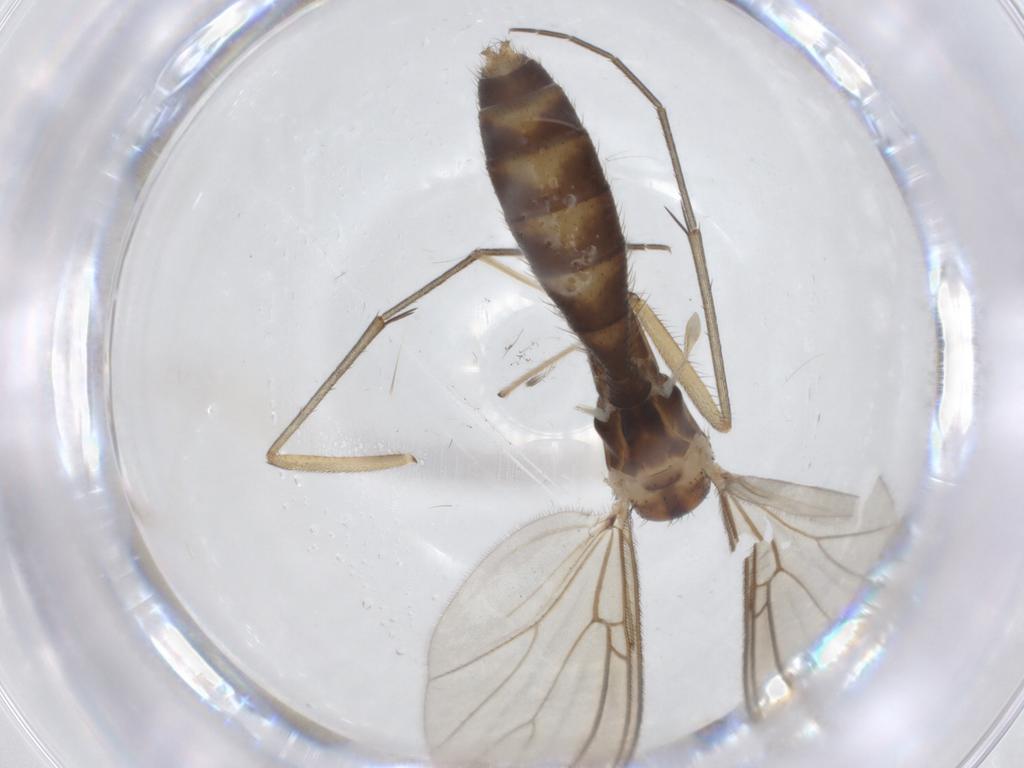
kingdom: Animalia
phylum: Arthropoda
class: Insecta
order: Diptera
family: Mycetophilidae
